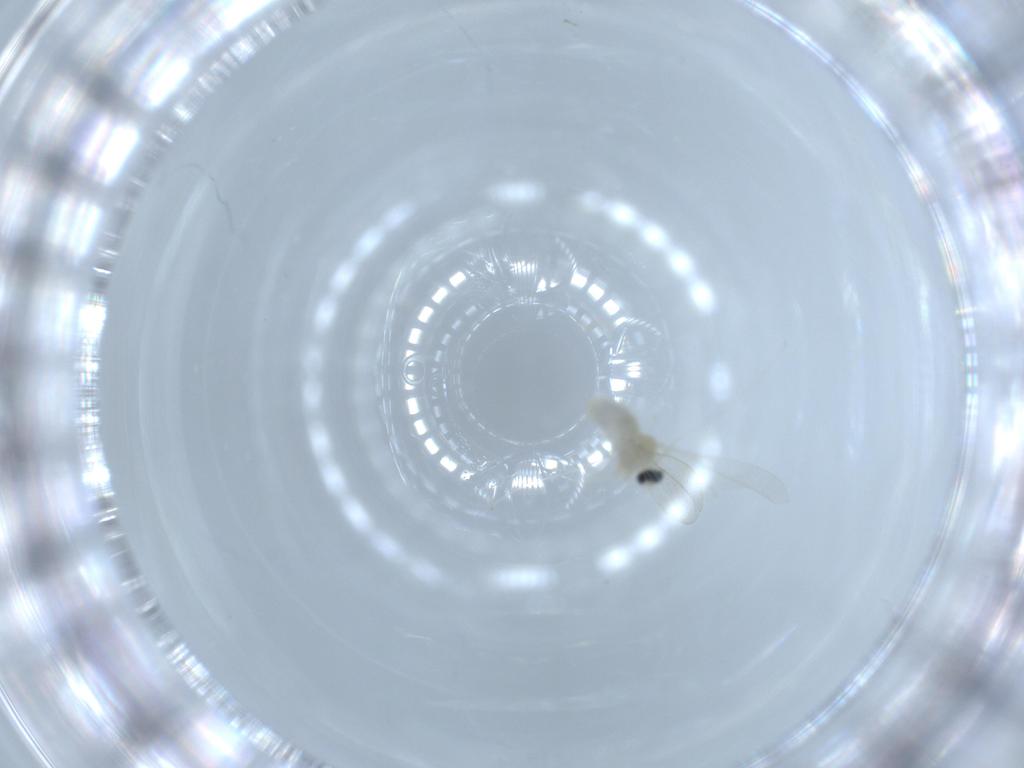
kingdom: Animalia
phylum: Arthropoda
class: Insecta
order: Diptera
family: Cecidomyiidae
